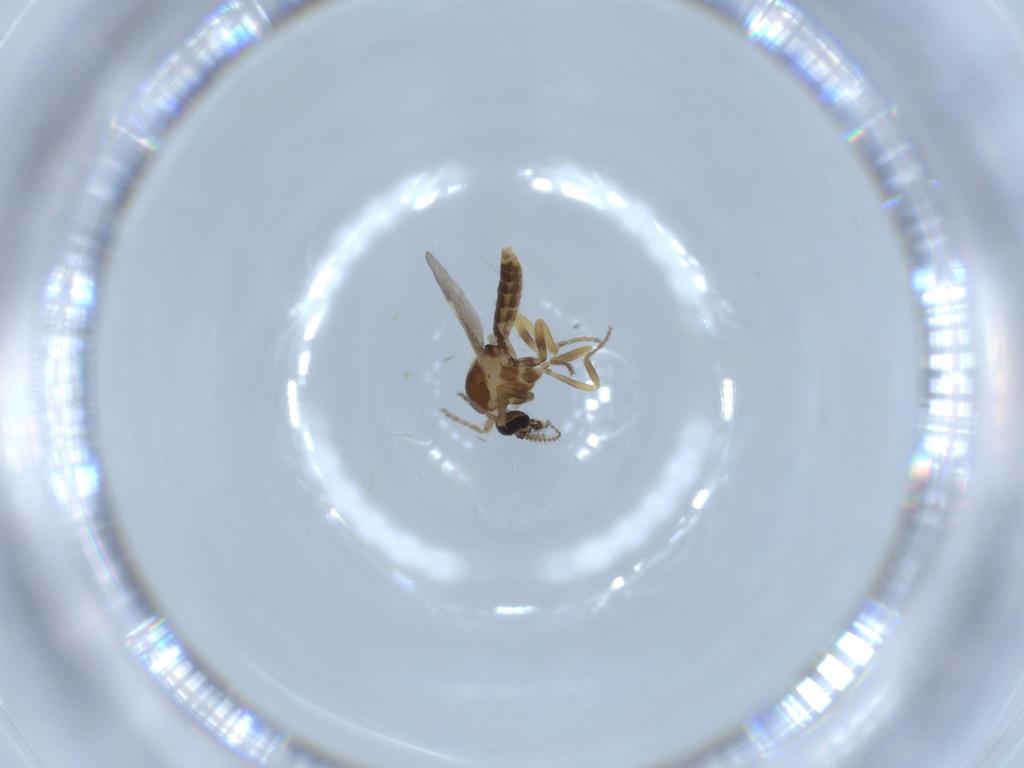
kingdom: Animalia
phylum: Arthropoda
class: Insecta
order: Diptera
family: Ceratopogonidae
